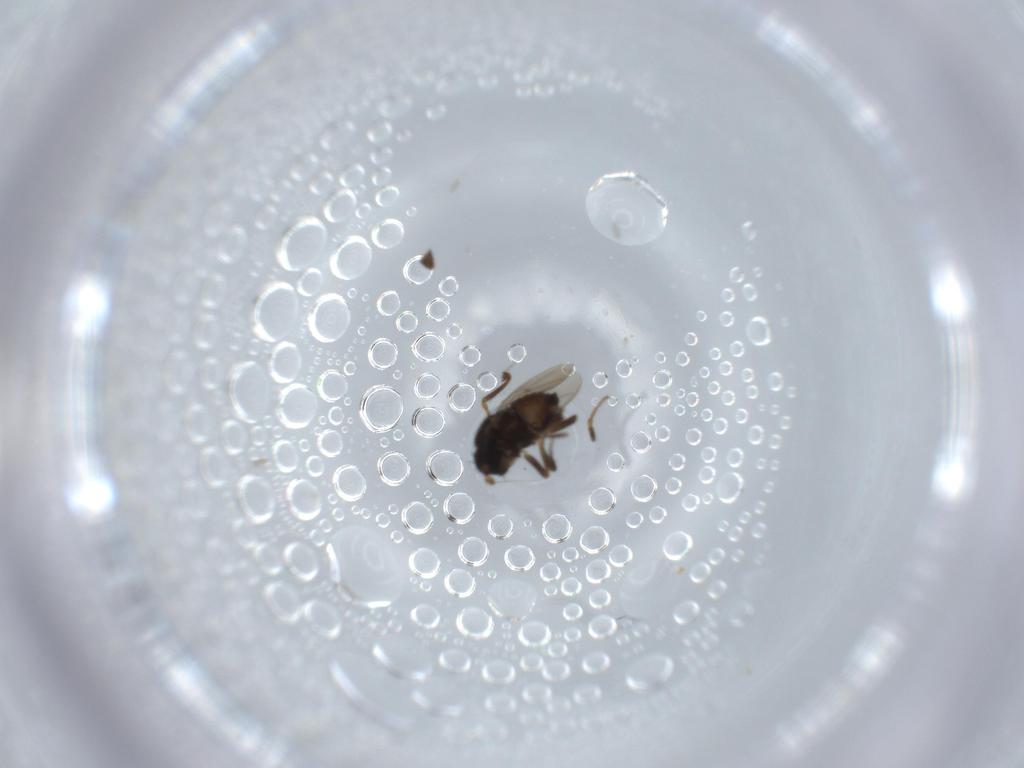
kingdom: Animalia
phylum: Arthropoda
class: Insecta
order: Diptera
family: Sphaeroceridae
